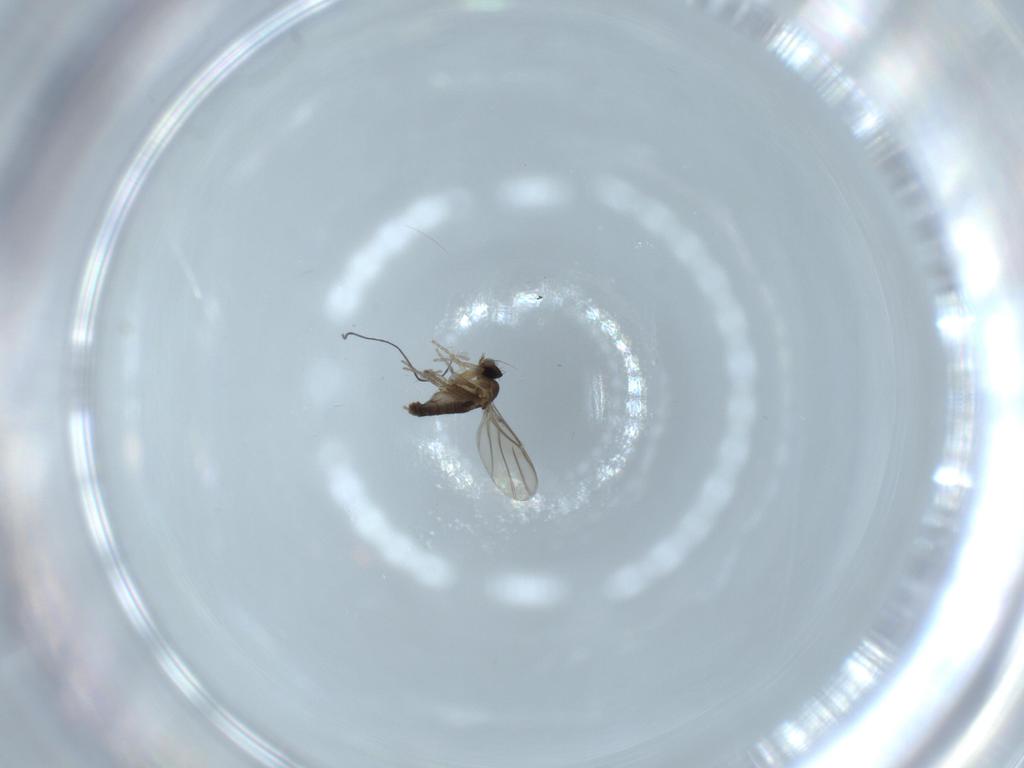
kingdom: Animalia
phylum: Arthropoda
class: Insecta
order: Diptera
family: Phoridae
